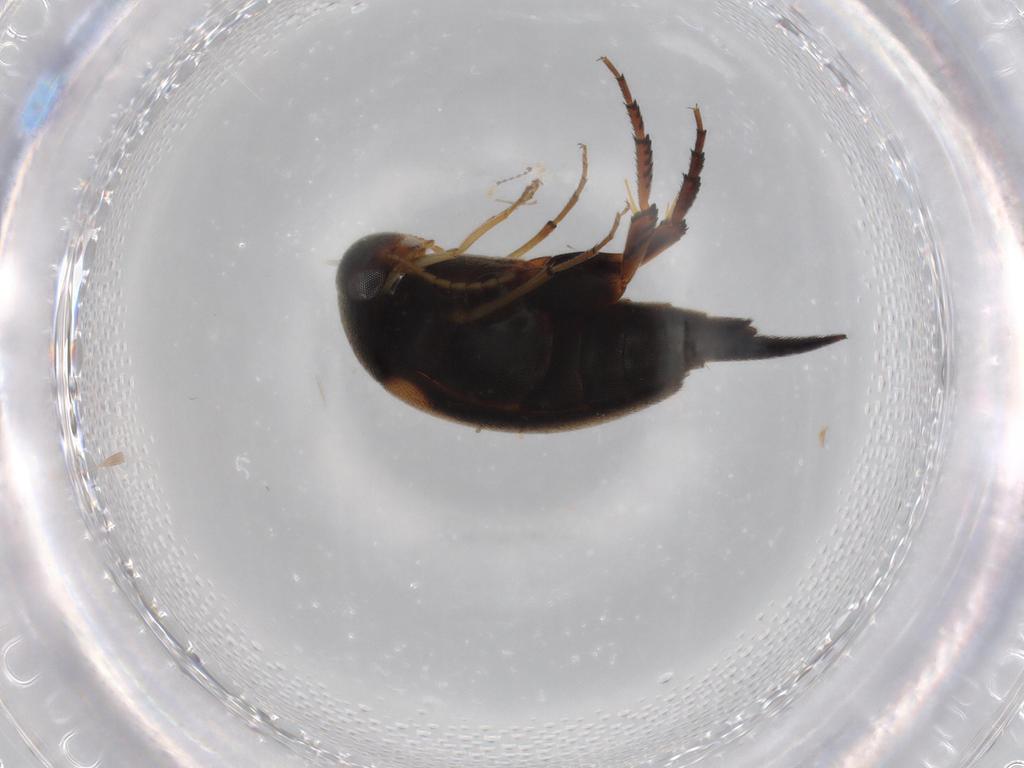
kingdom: Animalia
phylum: Arthropoda
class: Insecta
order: Coleoptera
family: Mordellidae
